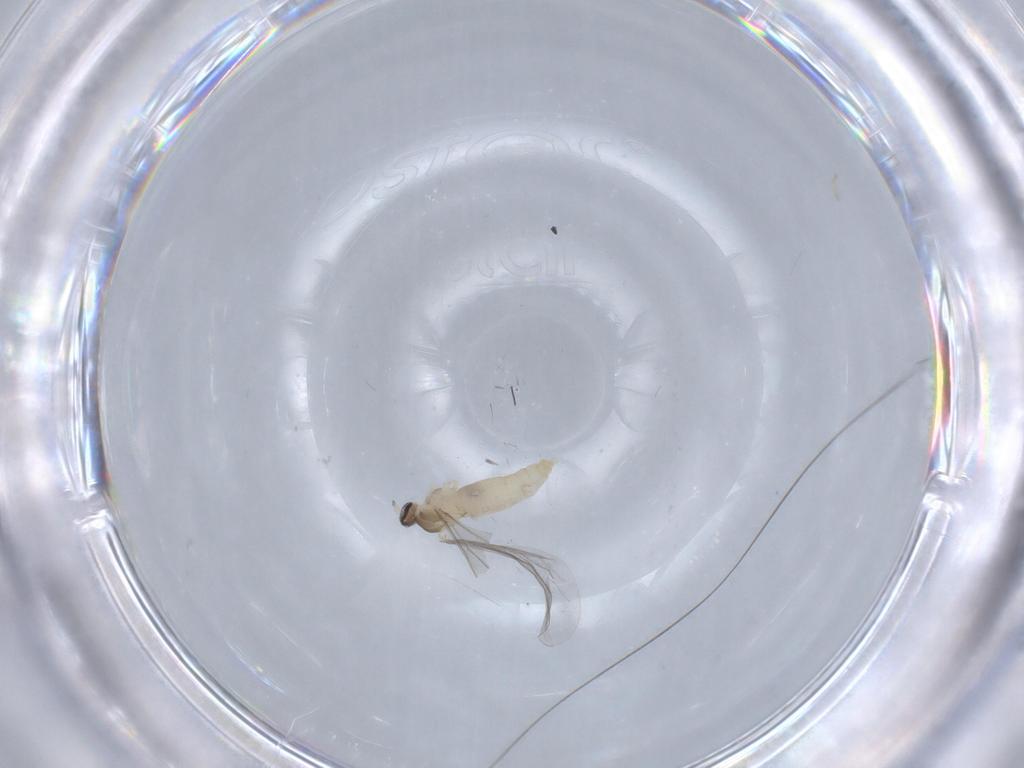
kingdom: Animalia
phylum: Arthropoda
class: Insecta
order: Diptera
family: Cecidomyiidae
